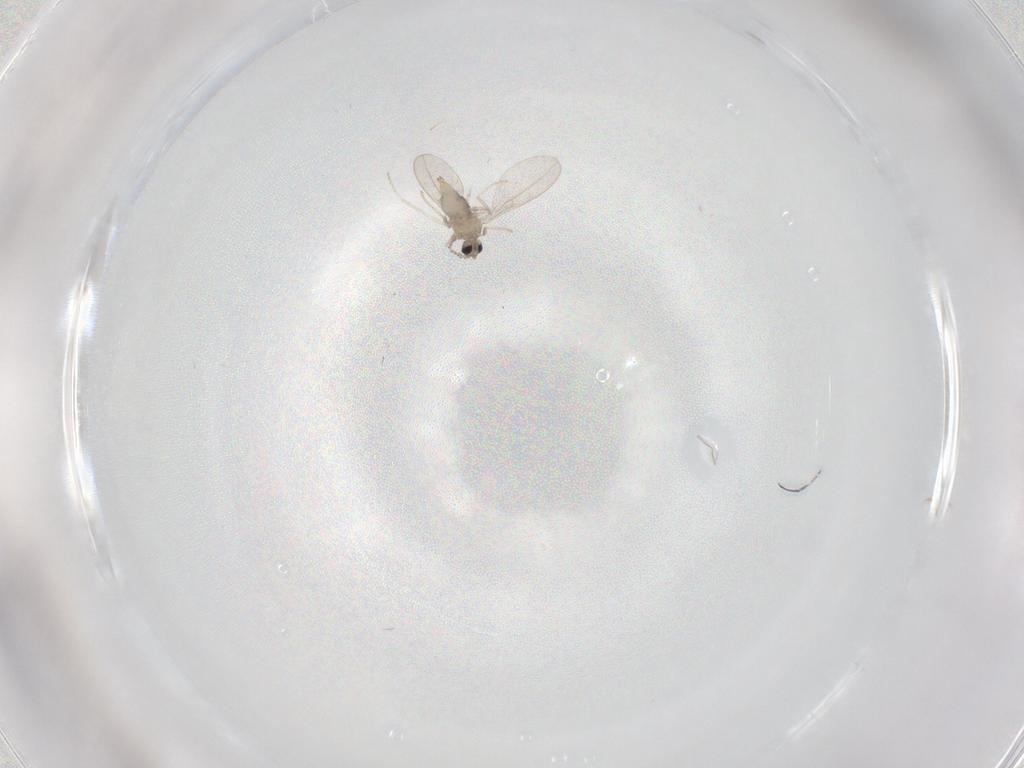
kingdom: Animalia
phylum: Arthropoda
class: Insecta
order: Diptera
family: Phoridae
